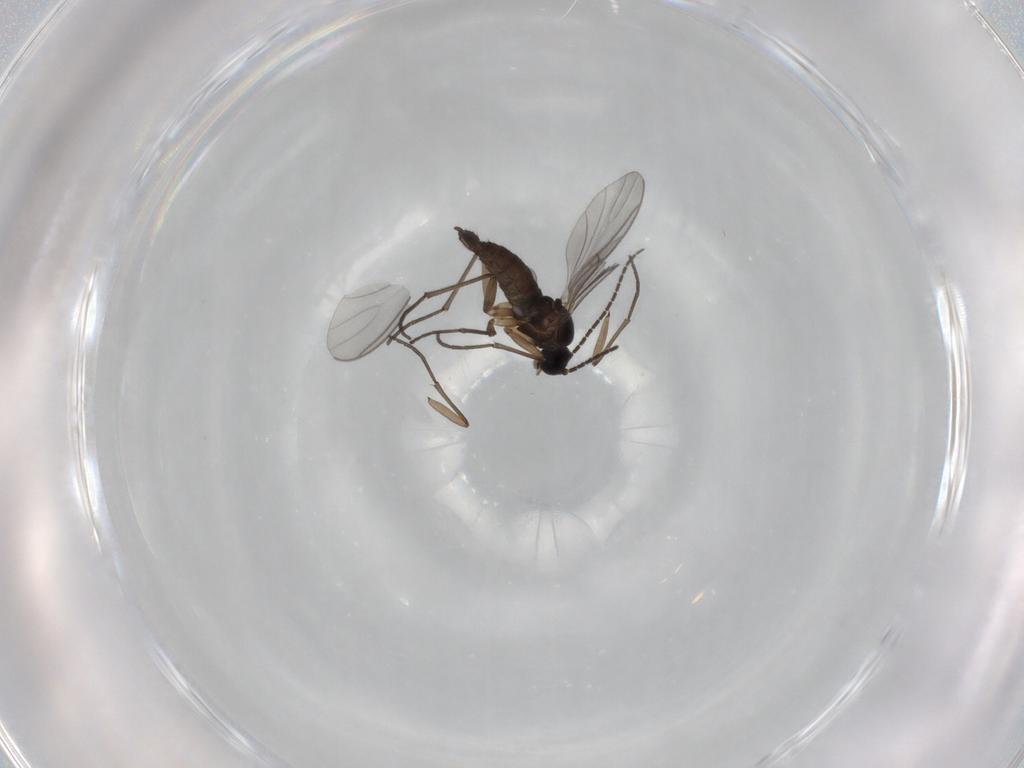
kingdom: Animalia
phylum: Arthropoda
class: Insecta
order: Diptera
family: Sciaridae
